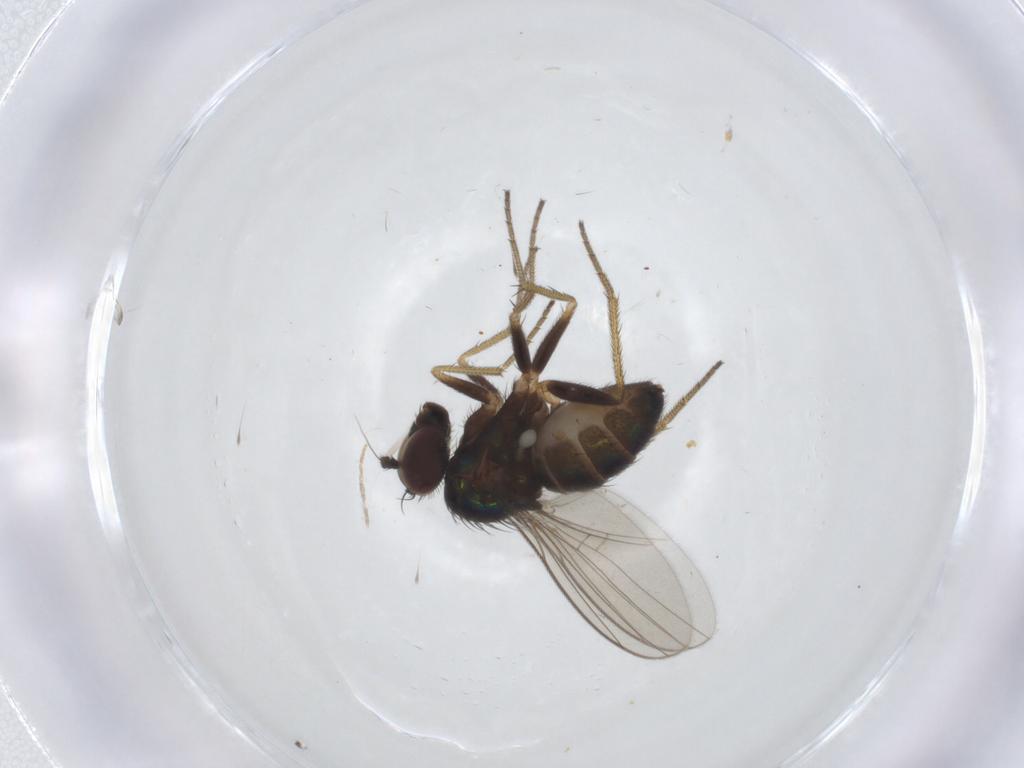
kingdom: Animalia
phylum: Arthropoda
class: Insecta
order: Diptera
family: Dolichopodidae
